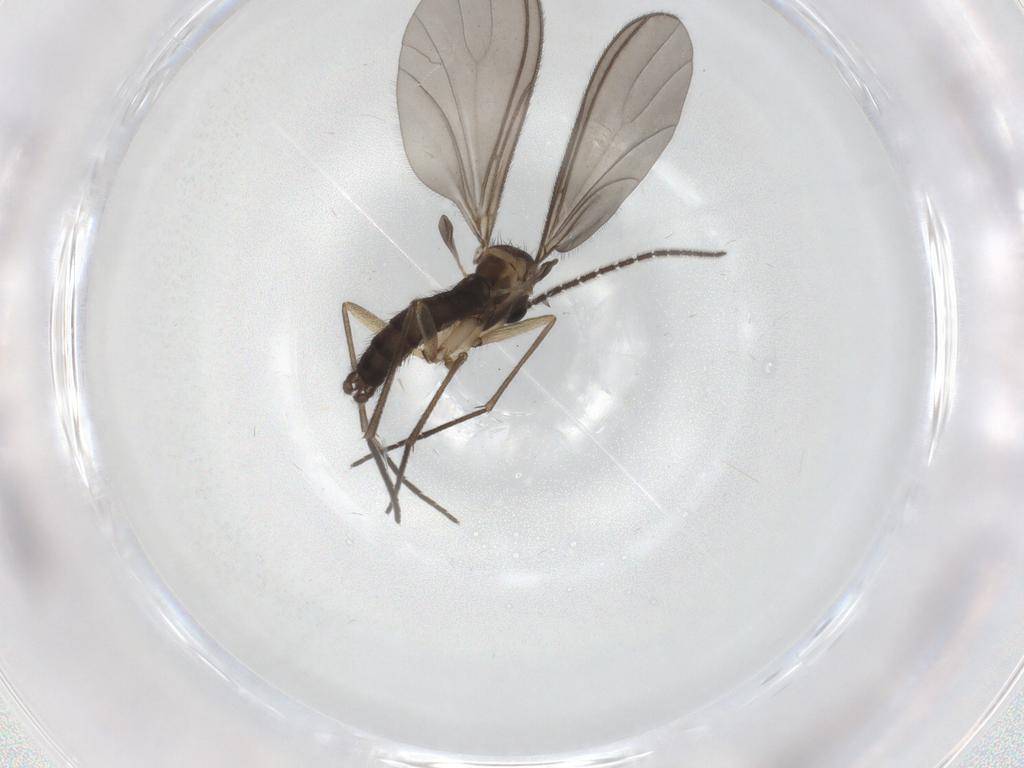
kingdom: Animalia
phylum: Arthropoda
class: Insecta
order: Diptera
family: Sciaridae
